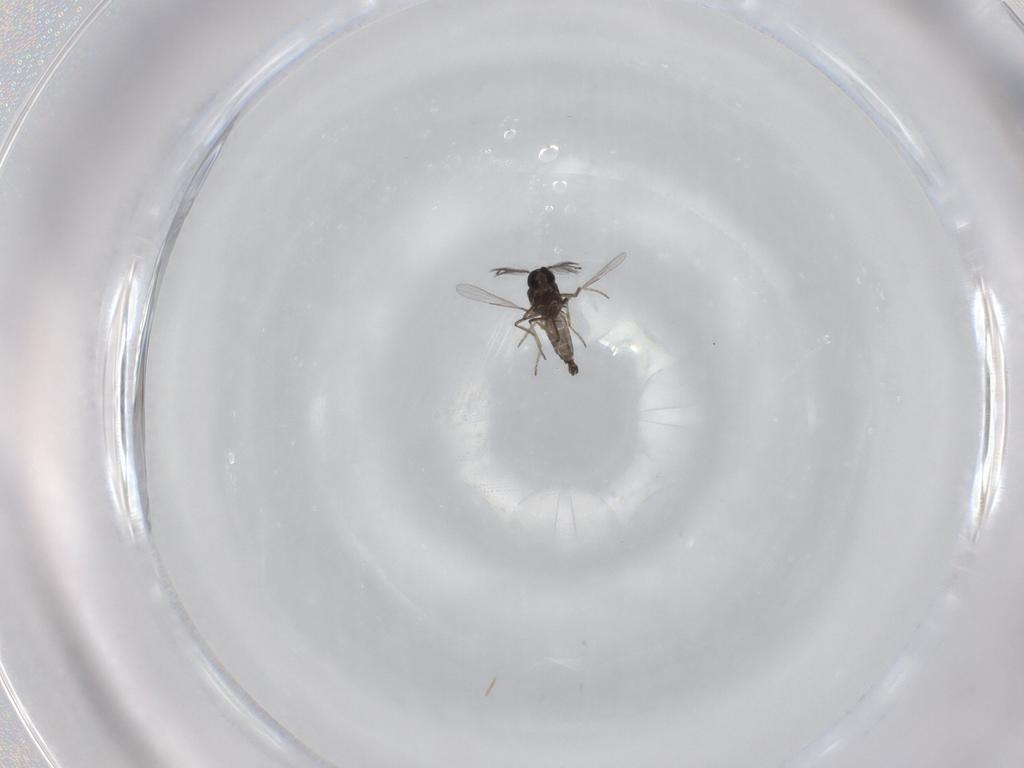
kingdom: Animalia
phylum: Arthropoda
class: Insecta
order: Diptera
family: Ceratopogonidae
